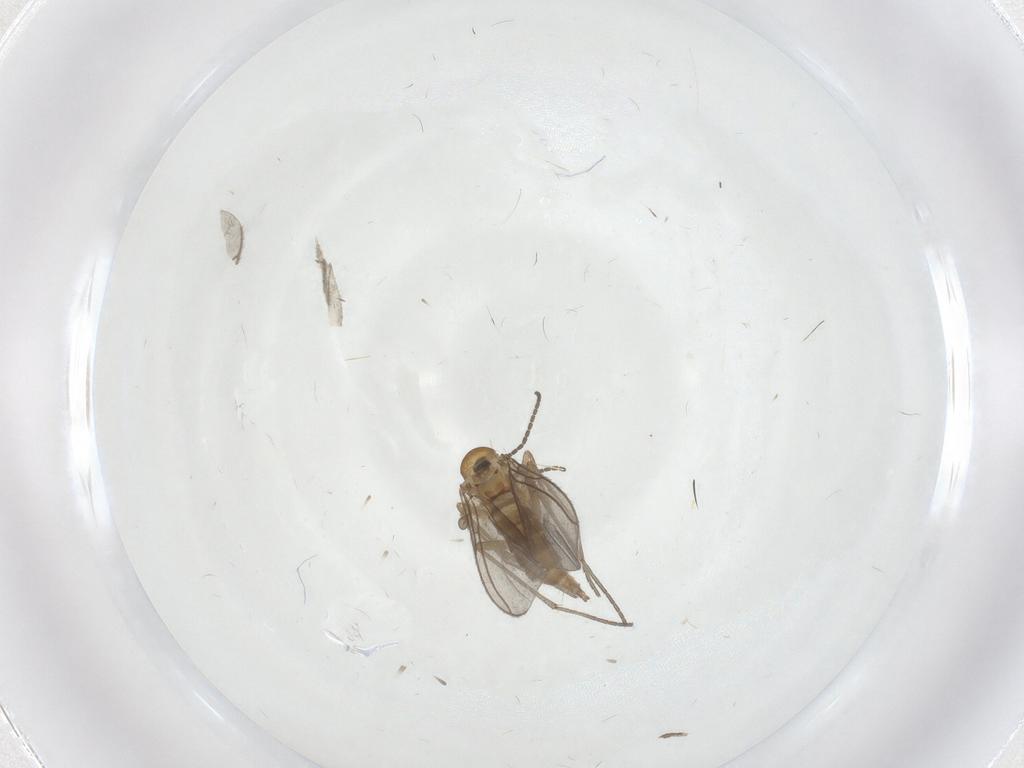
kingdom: Animalia
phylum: Arthropoda
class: Insecta
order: Diptera
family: Sciaridae
